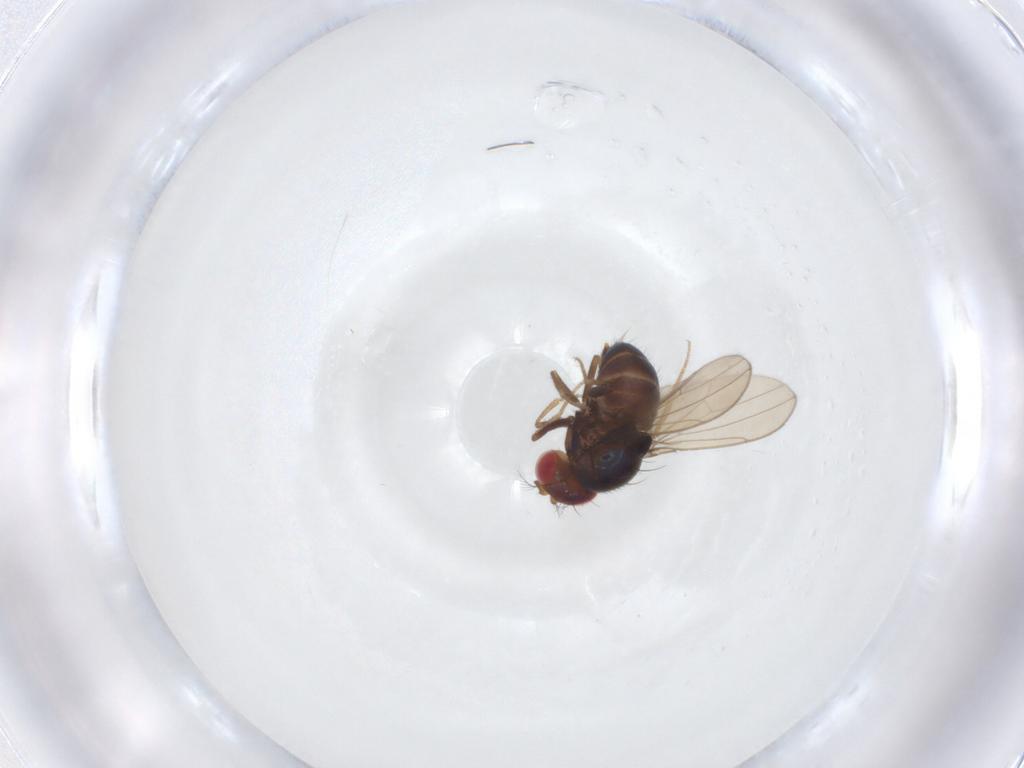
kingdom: Animalia
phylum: Arthropoda
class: Insecta
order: Diptera
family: Drosophilidae
